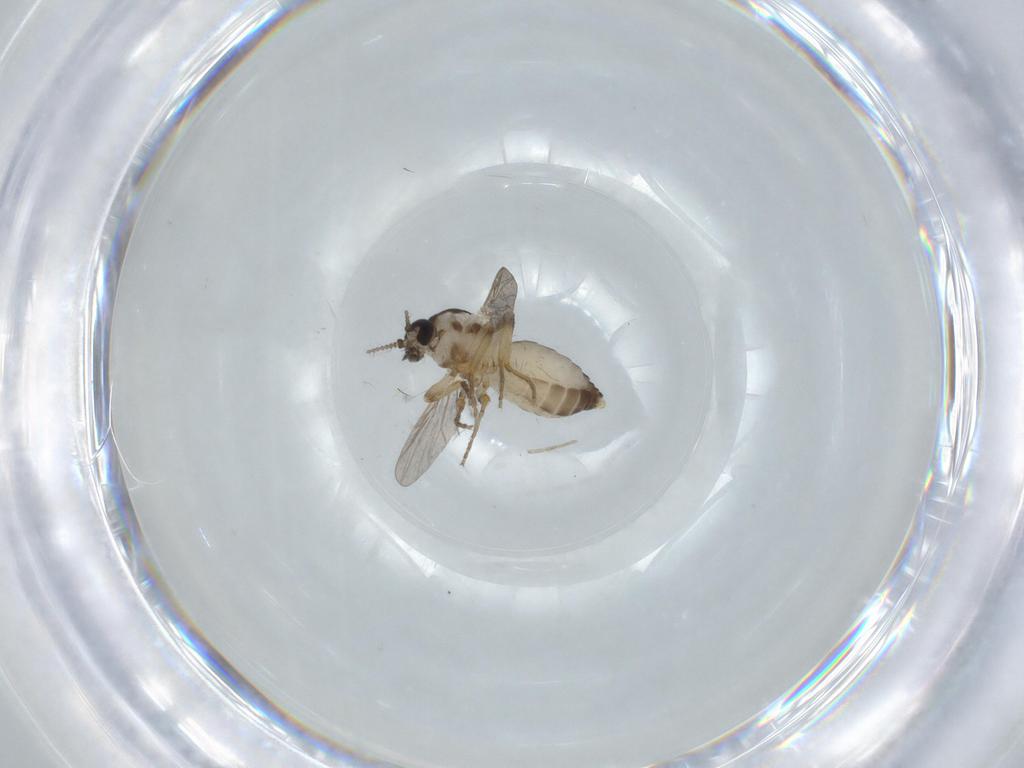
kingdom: Animalia
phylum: Arthropoda
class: Insecta
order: Diptera
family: Ceratopogonidae
